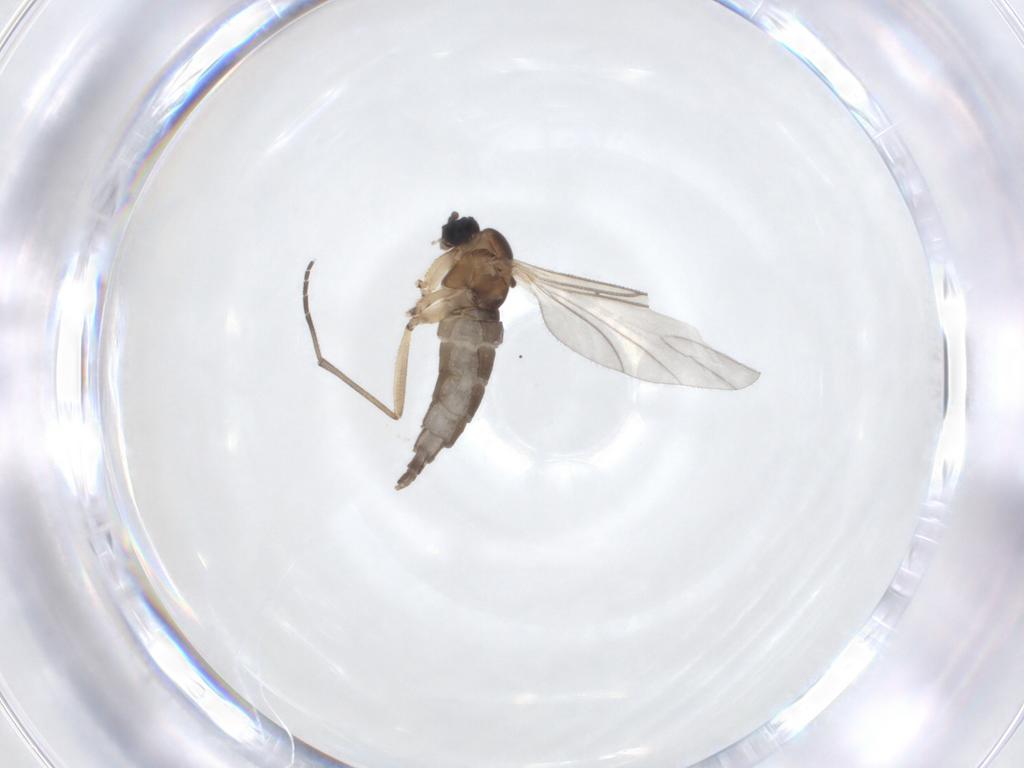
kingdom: Animalia
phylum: Arthropoda
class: Insecta
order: Diptera
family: Sciaridae
